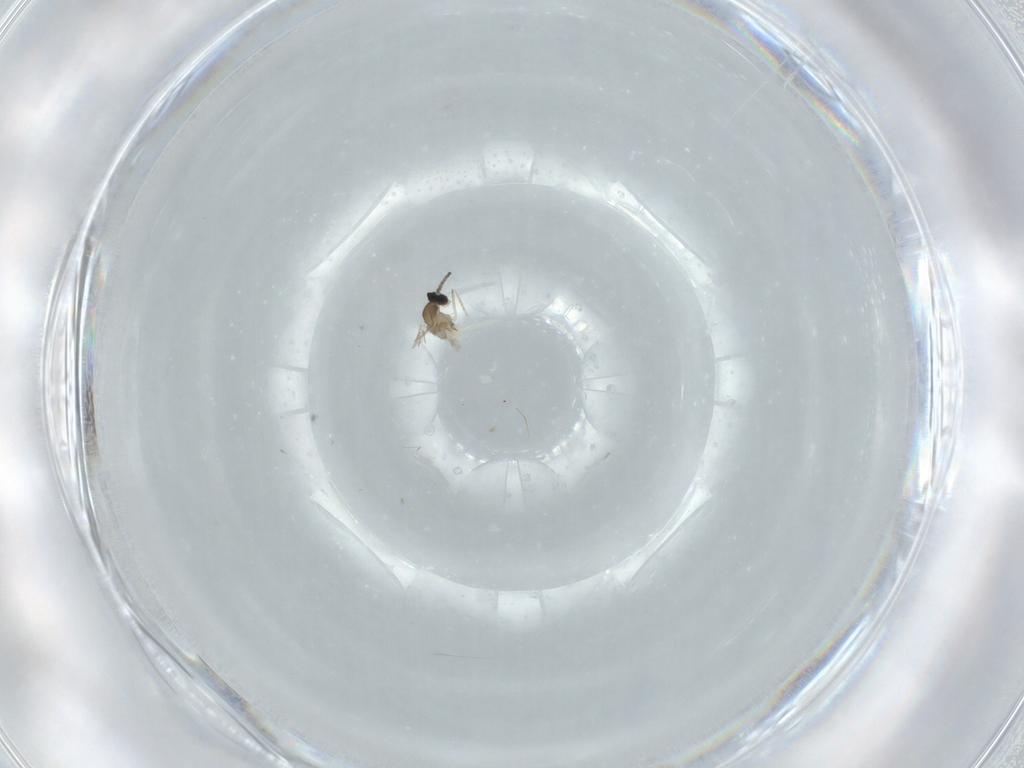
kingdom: Animalia
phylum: Arthropoda
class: Insecta
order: Diptera
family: Cecidomyiidae
